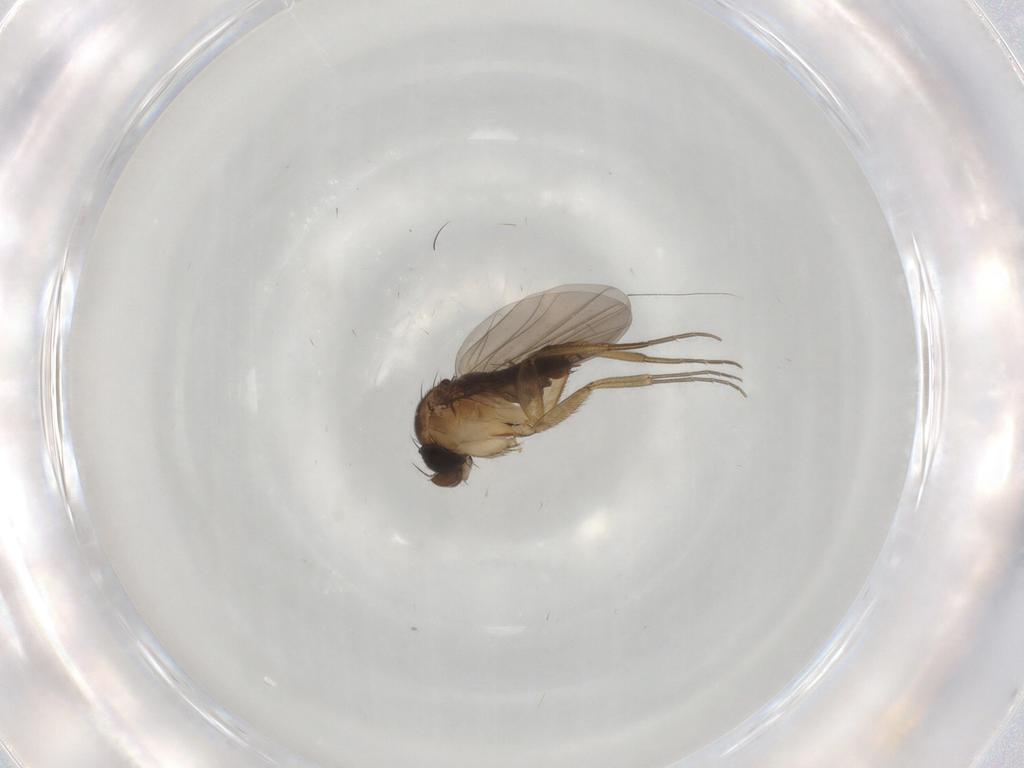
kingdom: Animalia
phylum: Arthropoda
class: Insecta
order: Diptera
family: Phoridae
